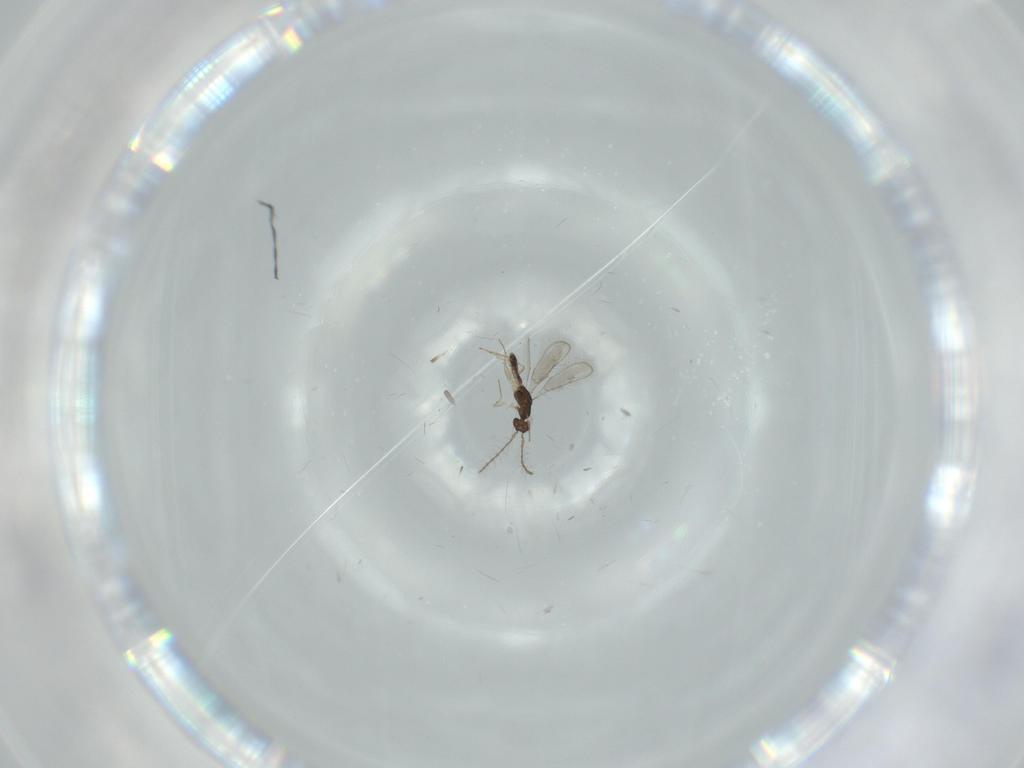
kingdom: Animalia
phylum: Arthropoda
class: Insecta
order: Hymenoptera
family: Pteromalidae
